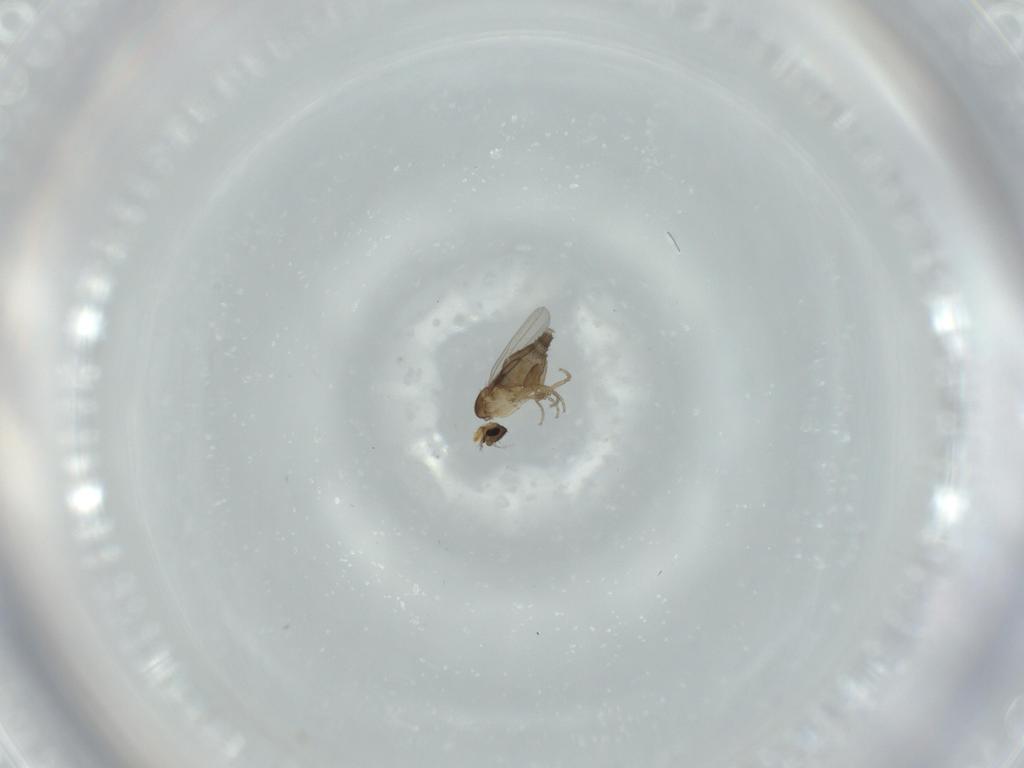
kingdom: Animalia
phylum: Arthropoda
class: Insecta
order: Diptera
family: Phoridae
